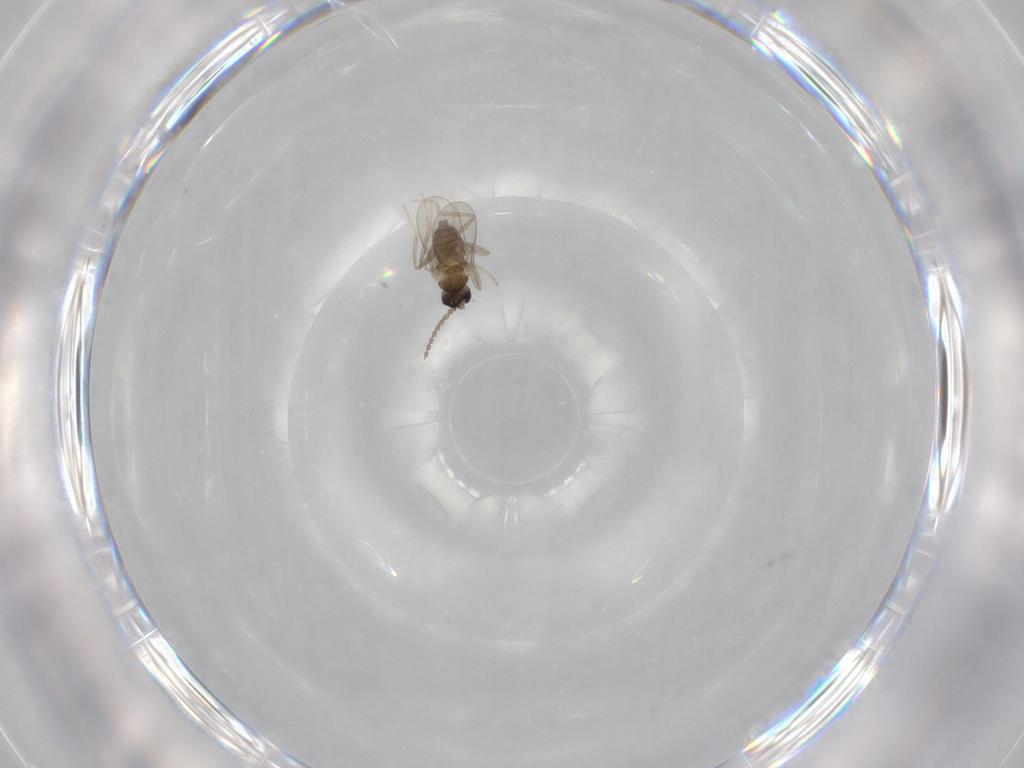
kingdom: Animalia
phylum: Arthropoda
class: Insecta
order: Diptera
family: Cecidomyiidae
